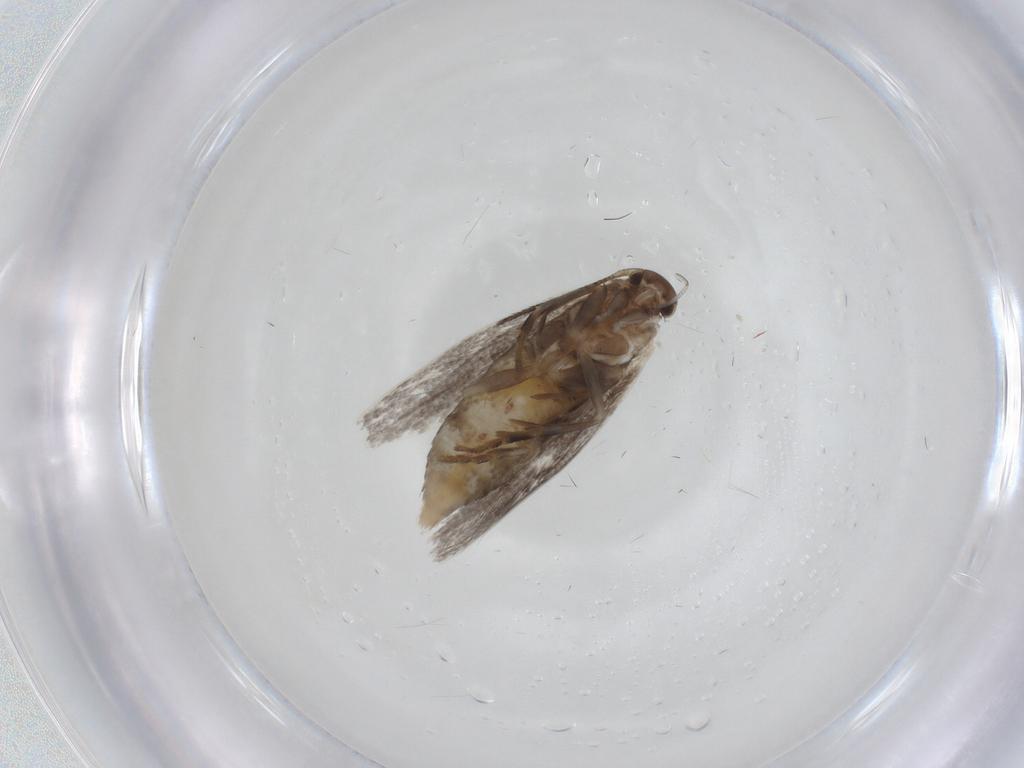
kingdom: Animalia
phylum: Arthropoda
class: Insecta
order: Lepidoptera
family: Elachistidae
